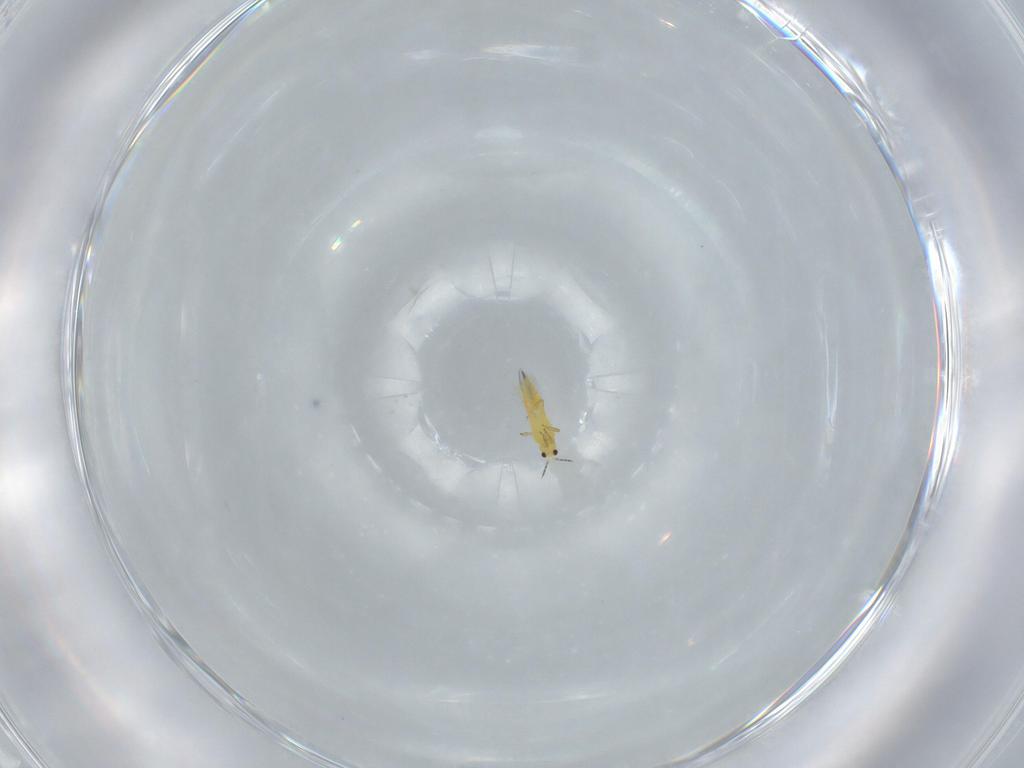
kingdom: Animalia
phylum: Arthropoda
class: Insecta
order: Thysanoptera
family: Thripidae
